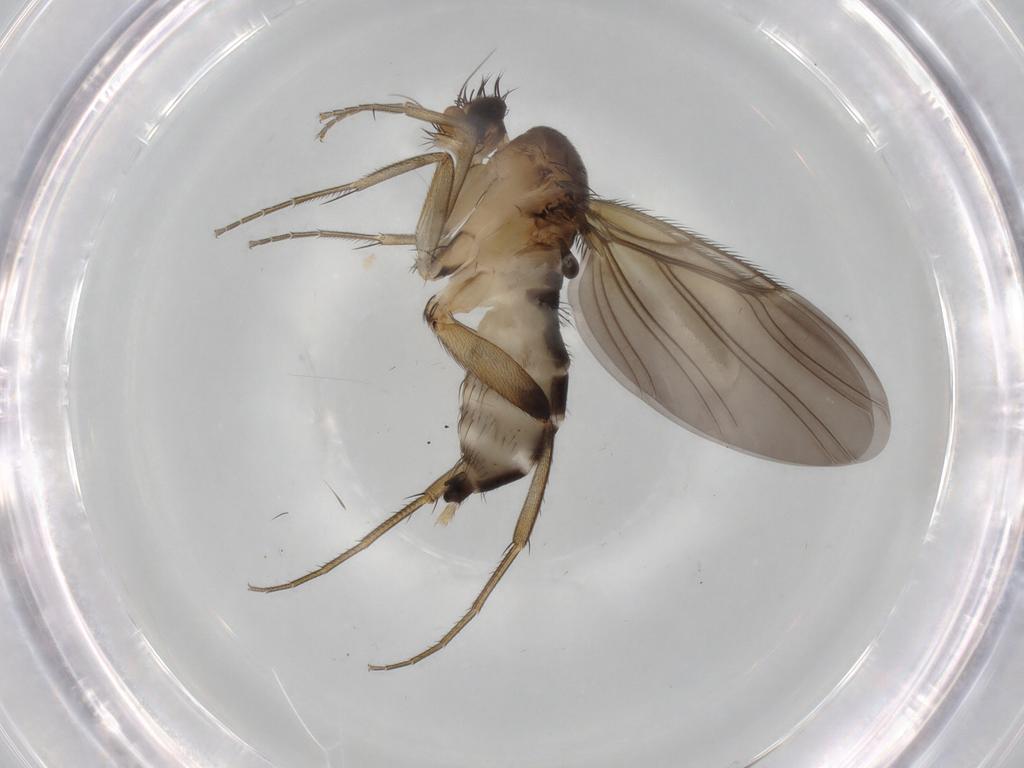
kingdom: Animalia
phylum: Arthropoda
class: Insecta
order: Diptera
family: Phoridae
